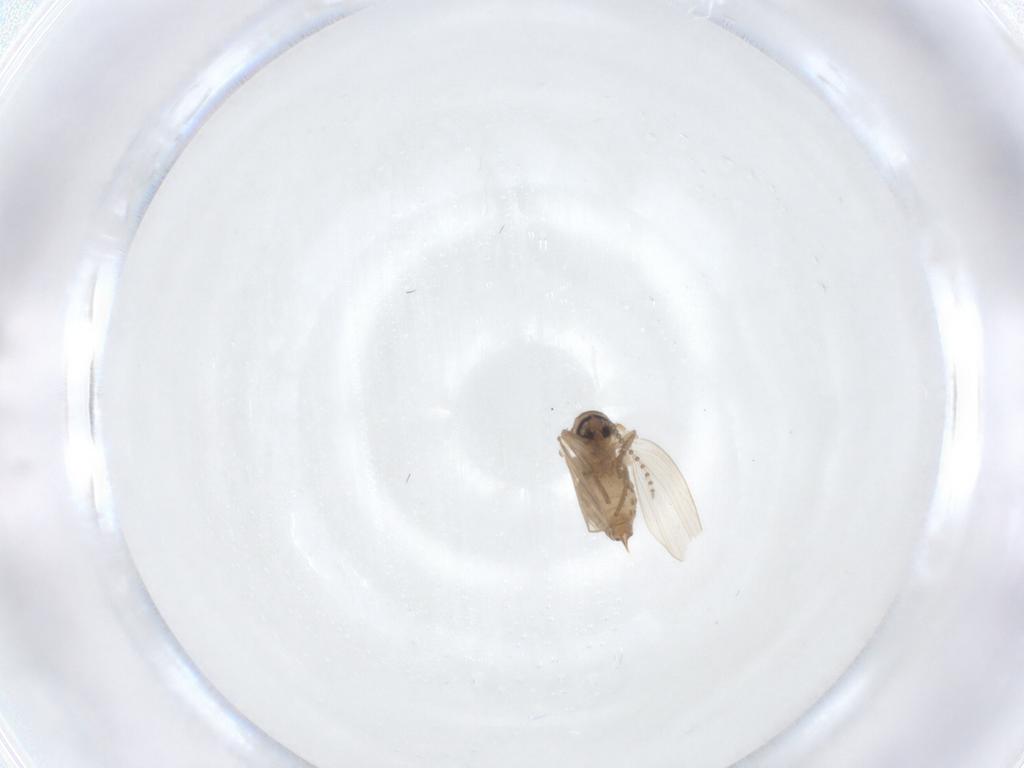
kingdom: Animalia
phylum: Arthropoda
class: Insecta
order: Diptera
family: Psychodidae
